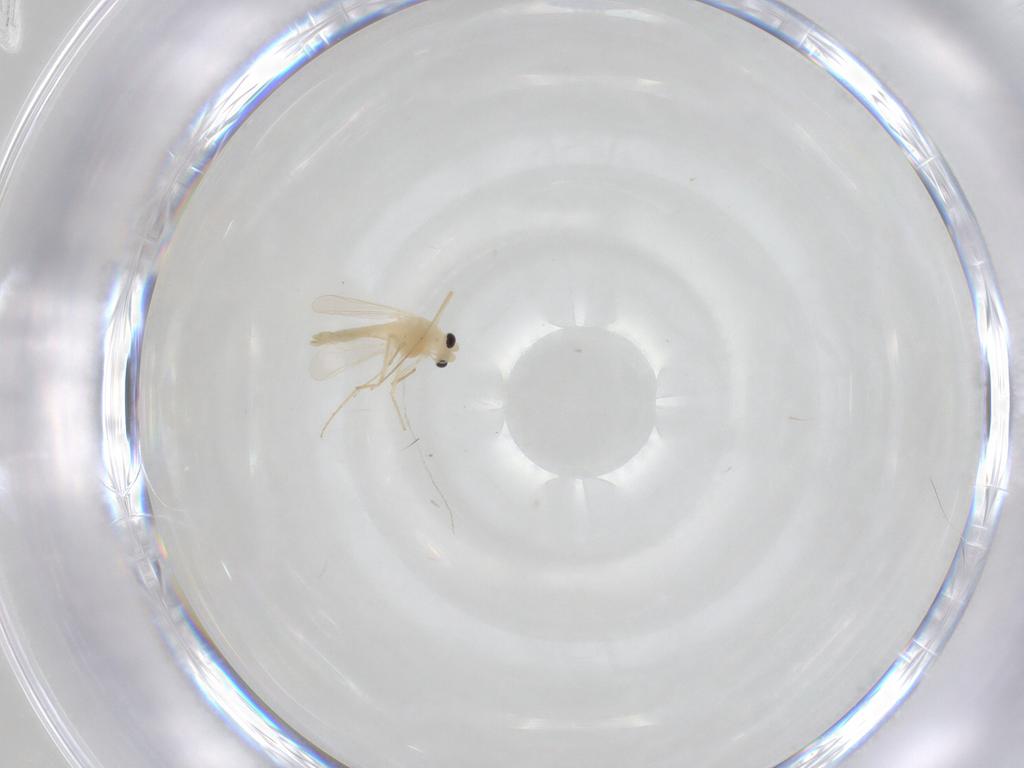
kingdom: Animalia
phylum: Arthropoda
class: Insecta
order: Diptera
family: Chironomidae
